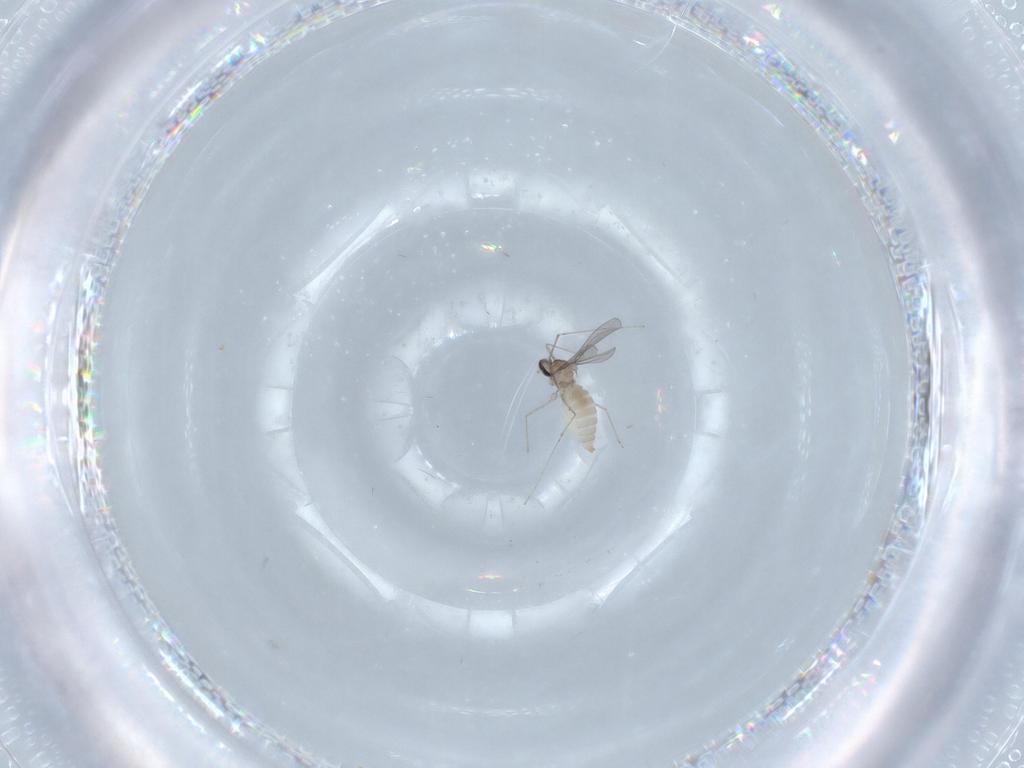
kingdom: Animalia
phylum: Arthropoda
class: Insecta
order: Diptera
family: Cecidomyiidae
